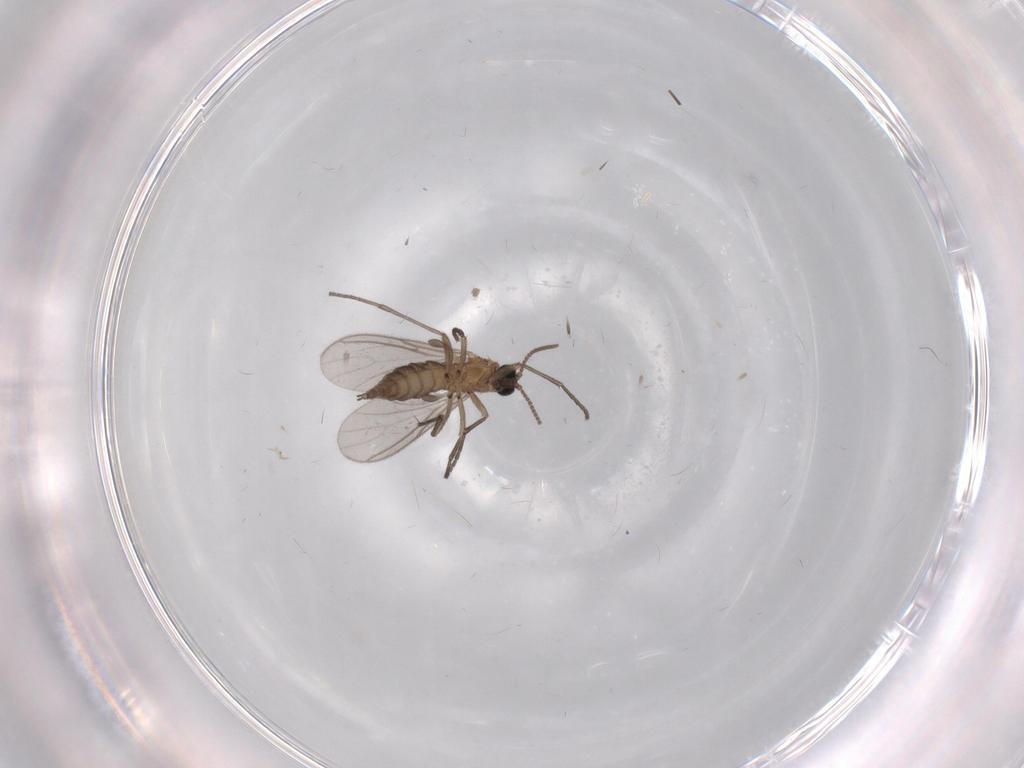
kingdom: Animalia
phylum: Arthropoda
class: Insecta
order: Diptera
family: Sciaridae
